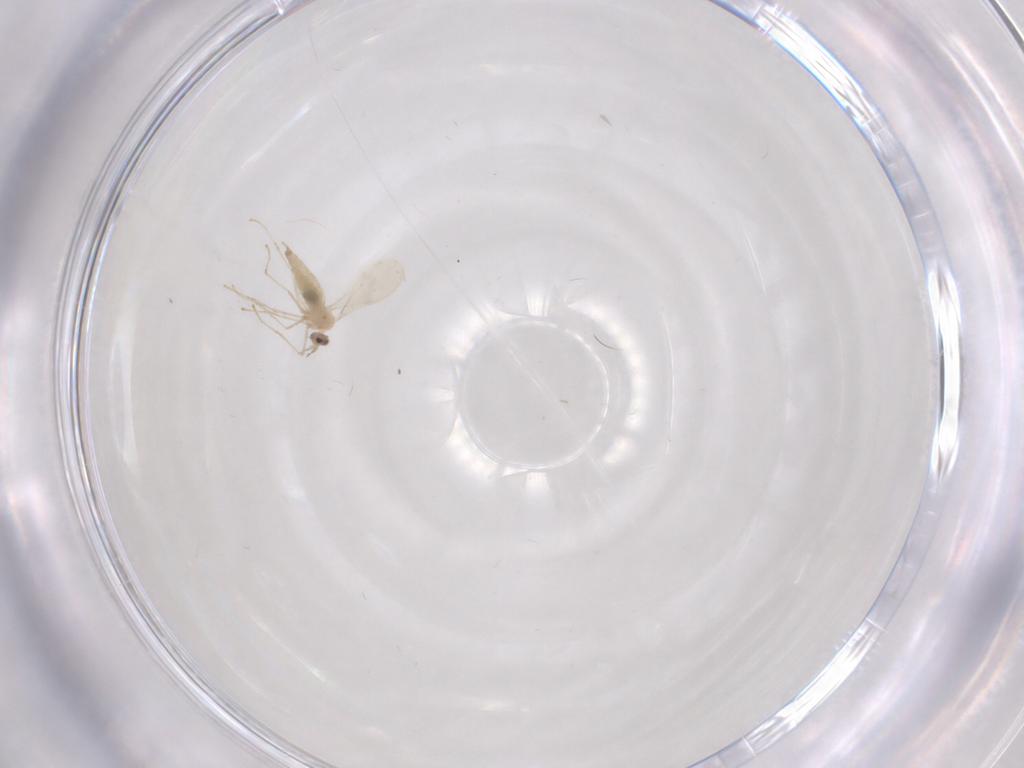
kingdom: Animalia
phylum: Arthropoda
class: Insecta
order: Diptera
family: Cecidomyiidae
